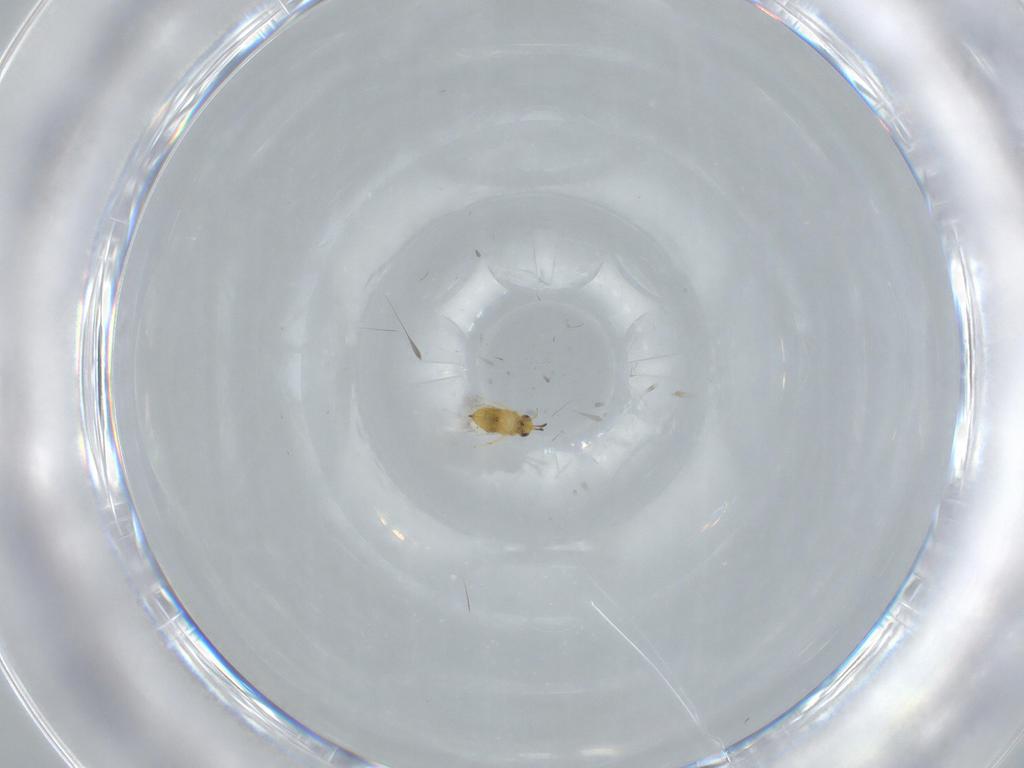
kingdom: Animalia
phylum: Arthropoda
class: Insecta
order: Hymenoptera
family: Signiphoridae
